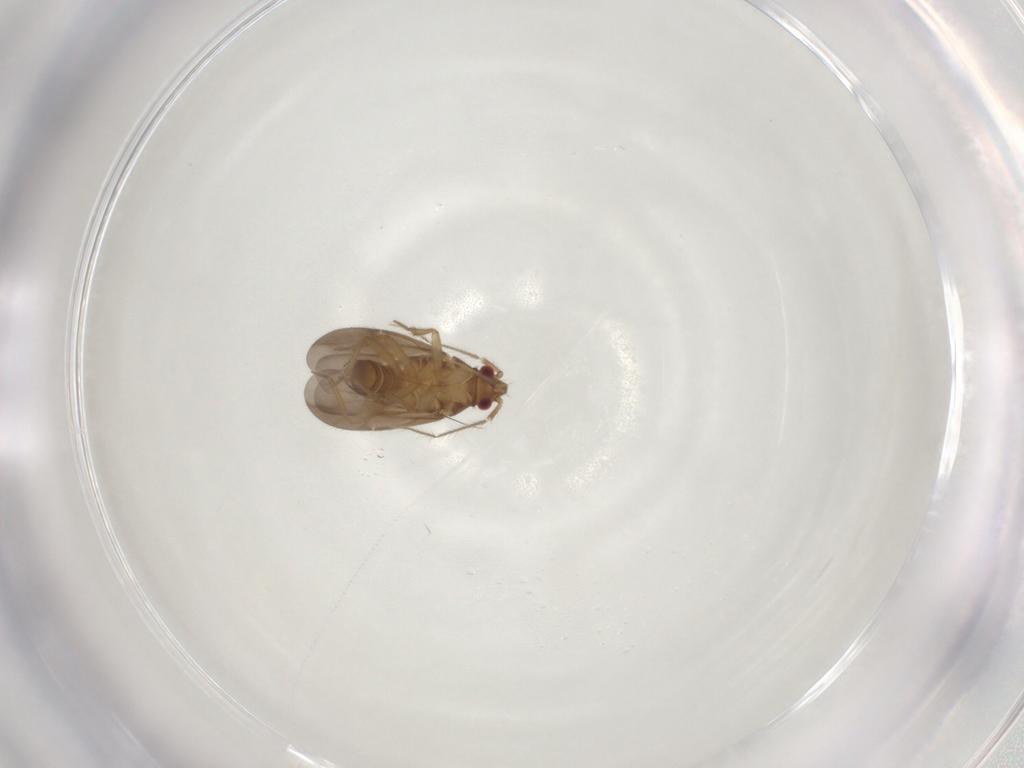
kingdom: Animalia
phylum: Arthropoda
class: Insecta
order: Hemiptera
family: Ceratocombidae
